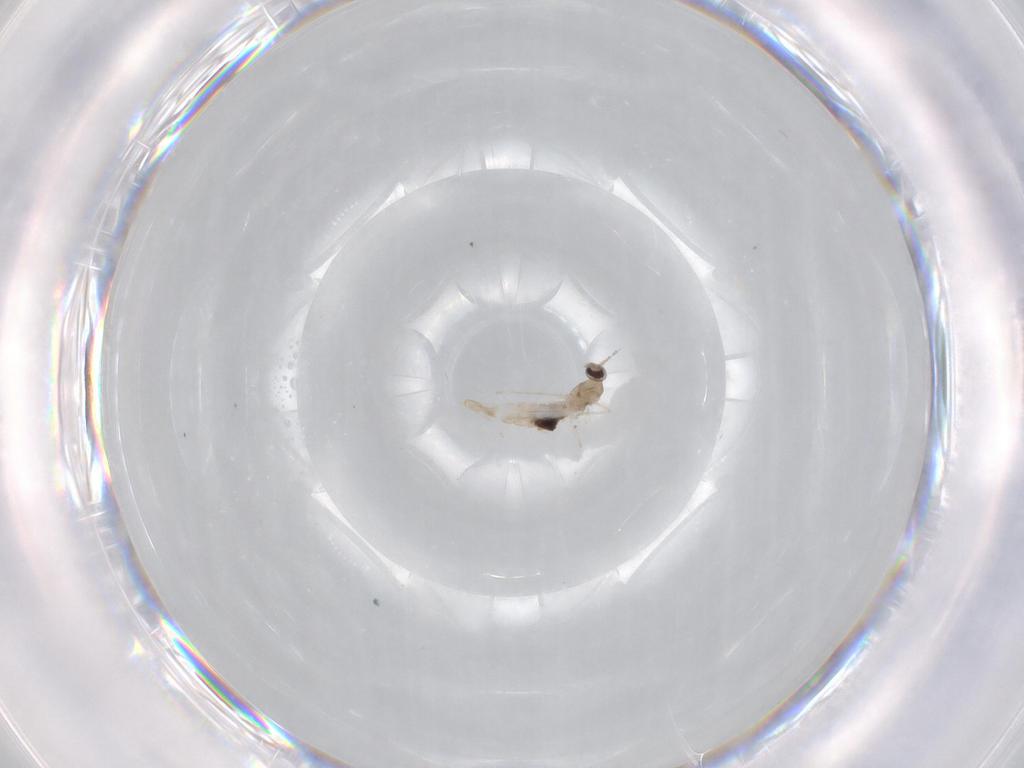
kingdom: Animalia
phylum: Arthropoda
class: Insecta
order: Diptera
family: Cecidomyiidae
